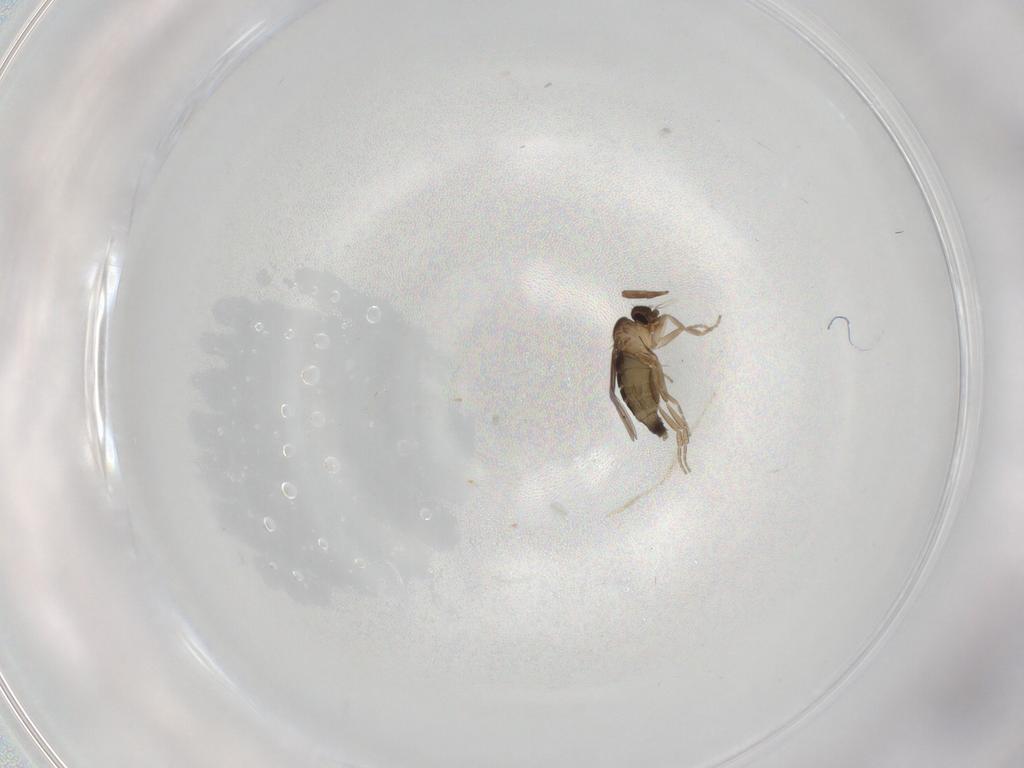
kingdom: Animalia
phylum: Arthropoda
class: Insecta
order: Diptera
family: Phoridae
